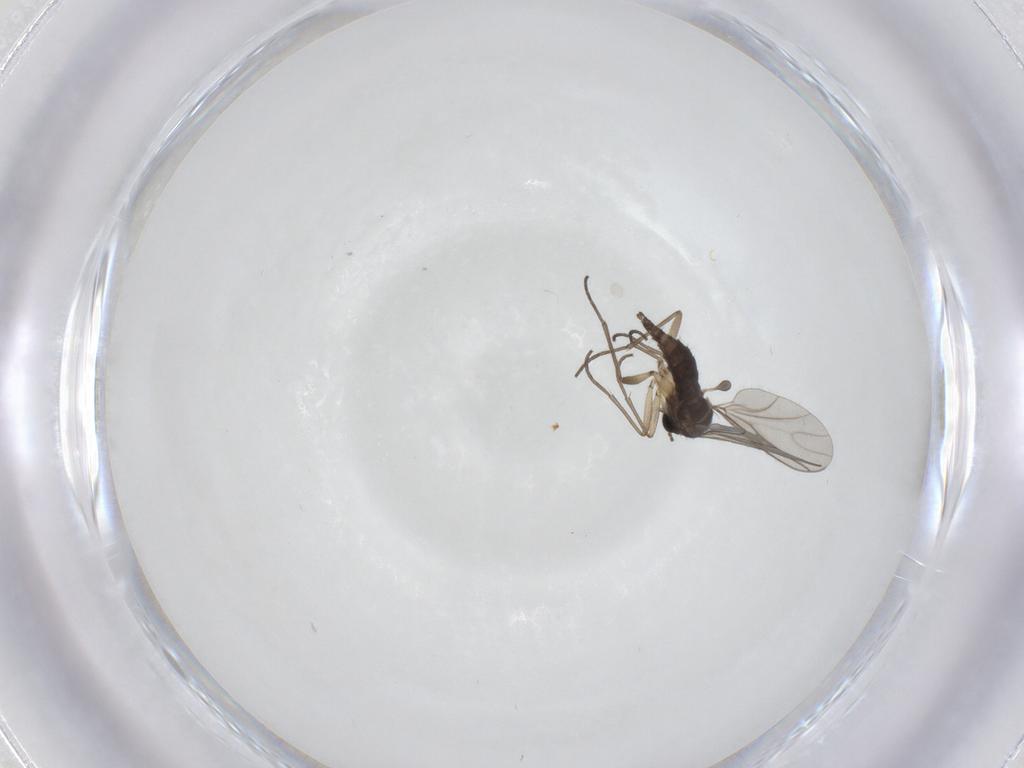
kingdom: Animalia
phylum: Arthropoda
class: Insecta
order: Diptera
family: Sciaridae
